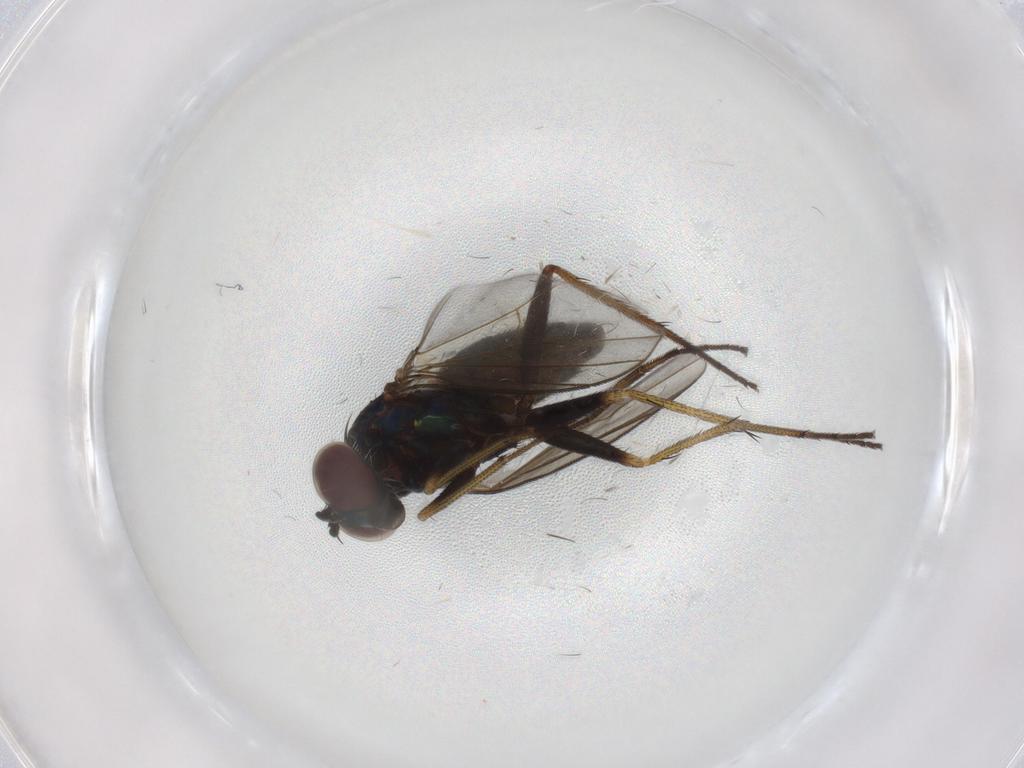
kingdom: Animalia
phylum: Arthropoda
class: Insecta
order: Diptera
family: Dolichopodidae
